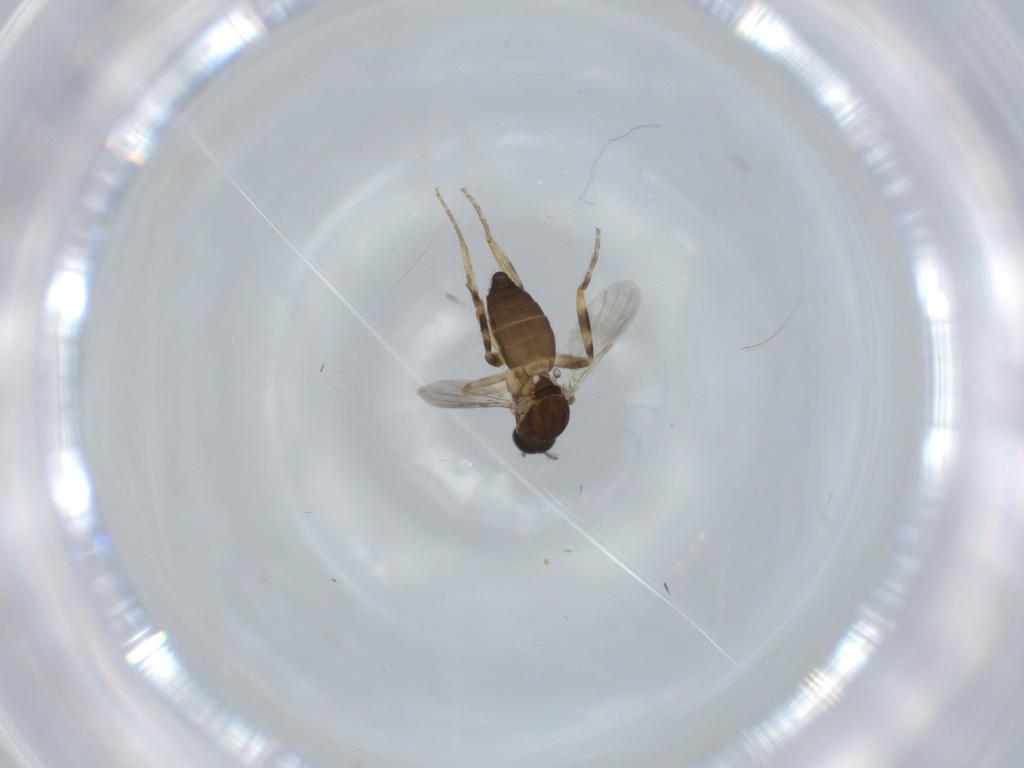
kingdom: Animalia
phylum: Arthropoda
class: Insecta
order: Diptera
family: Ceratopogonidae
